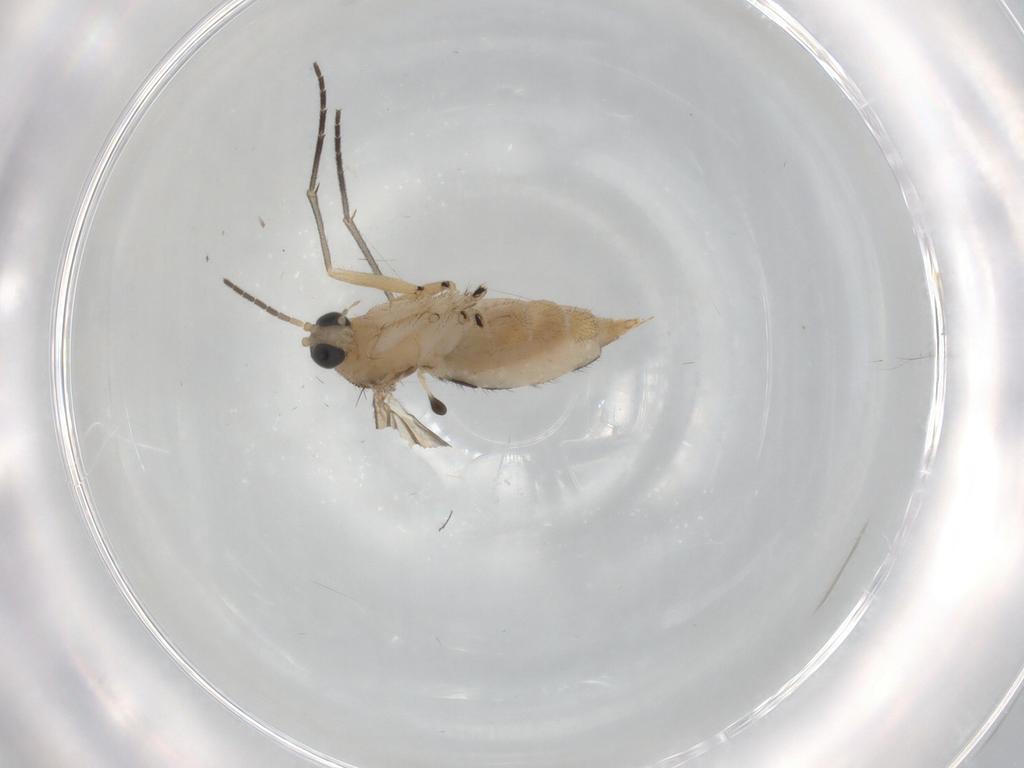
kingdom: Animalia
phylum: Arthropoda
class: Insecta
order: Diptera
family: Sciaridae
